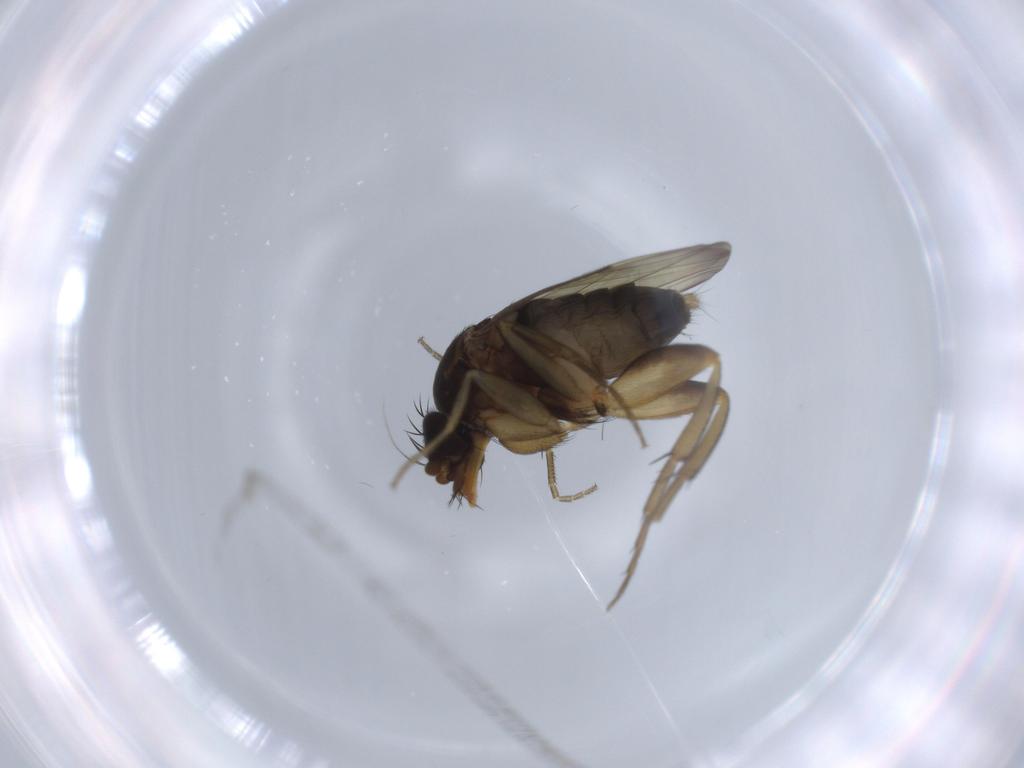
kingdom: Animalia
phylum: Arthropoda
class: Insecta
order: Diptera
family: Phoridae
